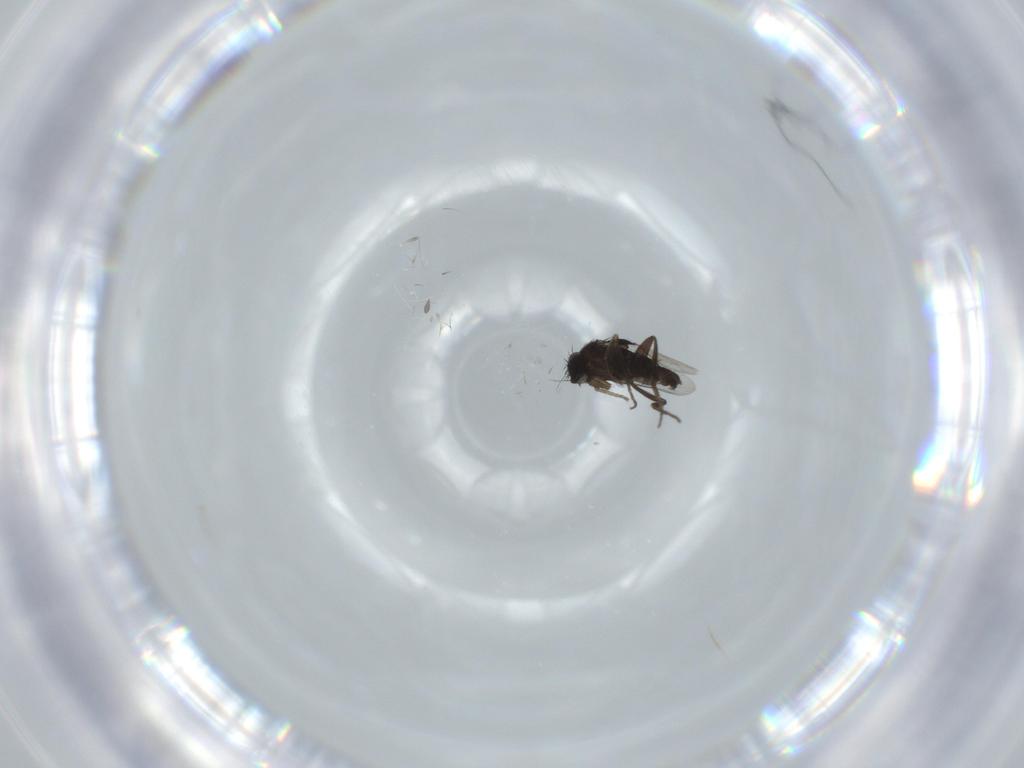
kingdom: Animalia
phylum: Arthropoda
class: Insecta
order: Diptera
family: Phoridae
